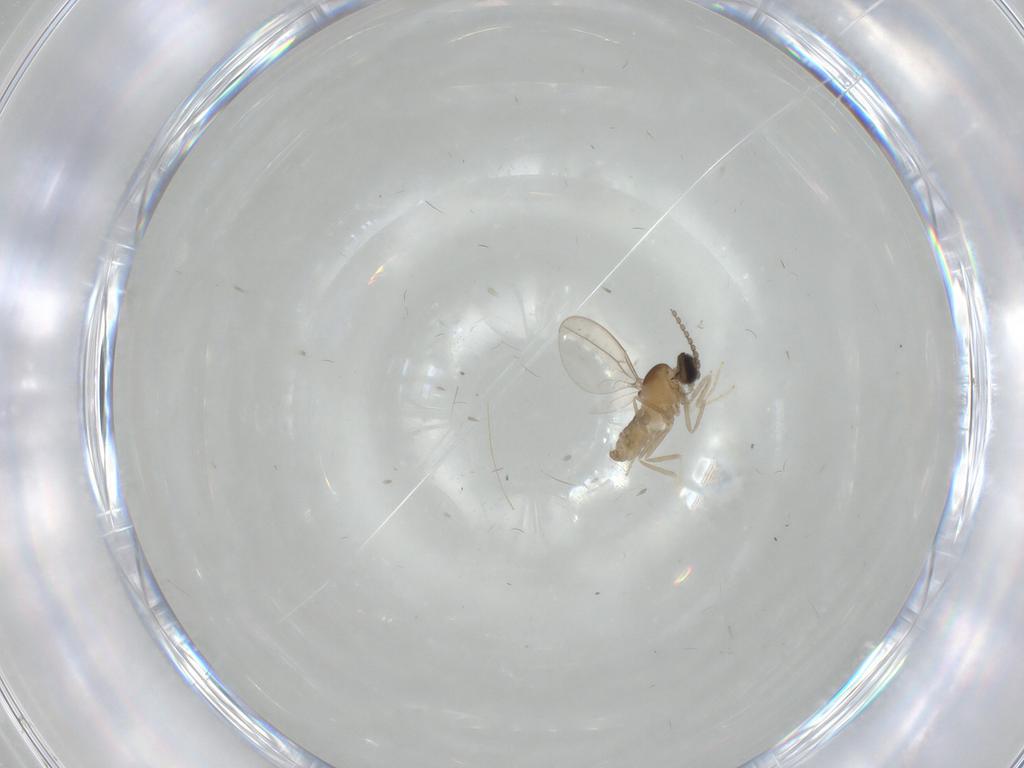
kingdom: Animalia
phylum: Arthropoda
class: Insecta
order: Diptera
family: Cecidomyiidae
